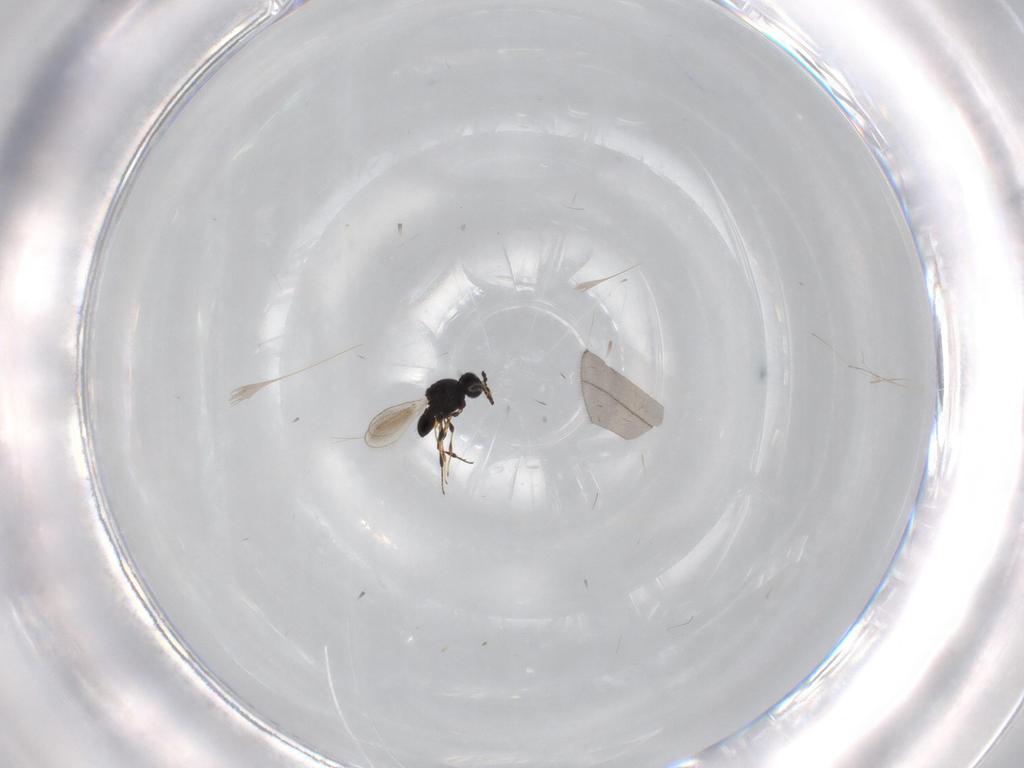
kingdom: Animalia
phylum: Arthropoda
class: Insecta
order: Hymenoptera
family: Platygastridae
